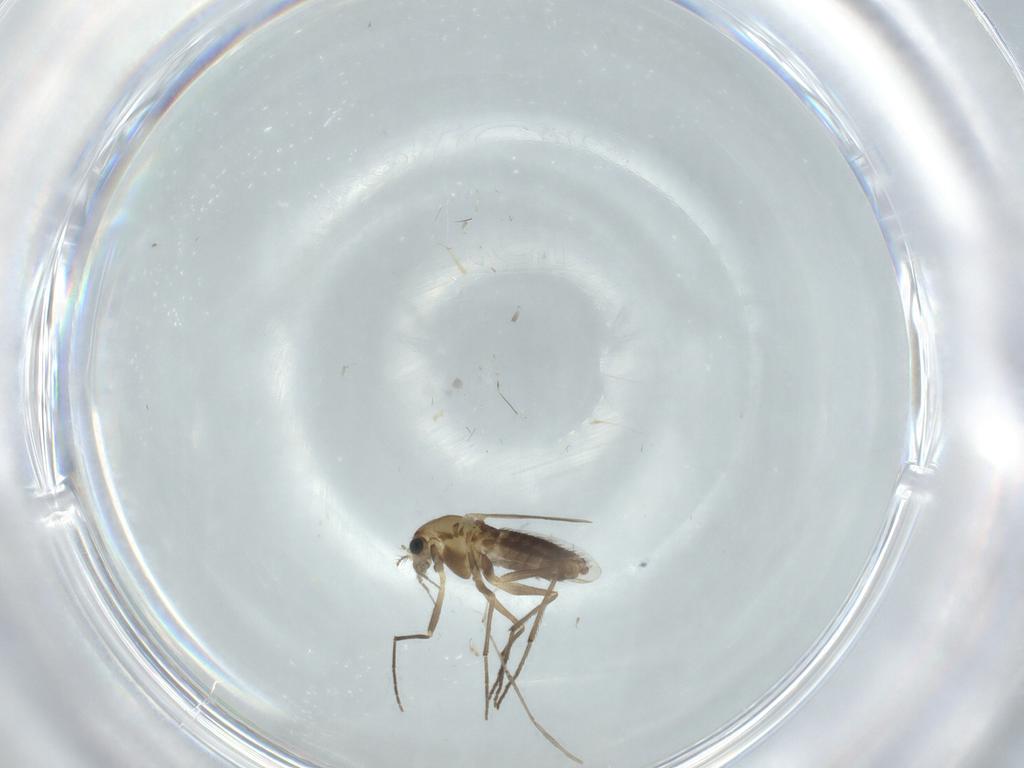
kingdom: Animalia
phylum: Arthropoda
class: Insecta
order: Diptera
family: Chironomidae
